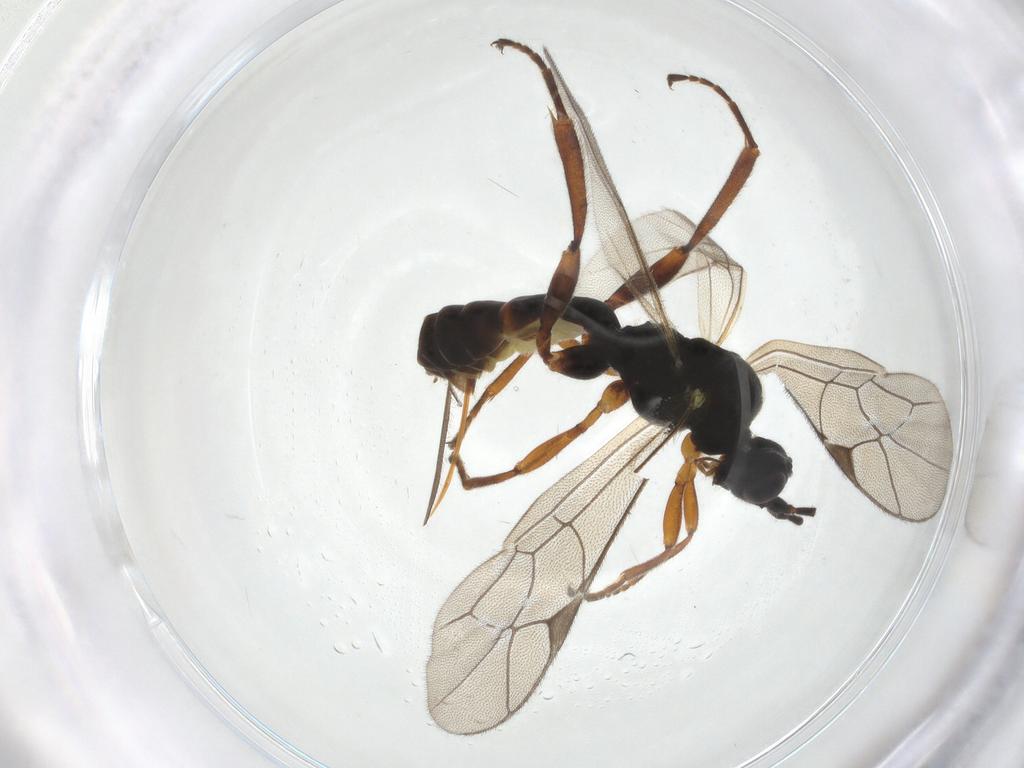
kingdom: Animalia
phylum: Arthropoda
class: Insecta
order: Hymenoptera
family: Ichneumonidae
